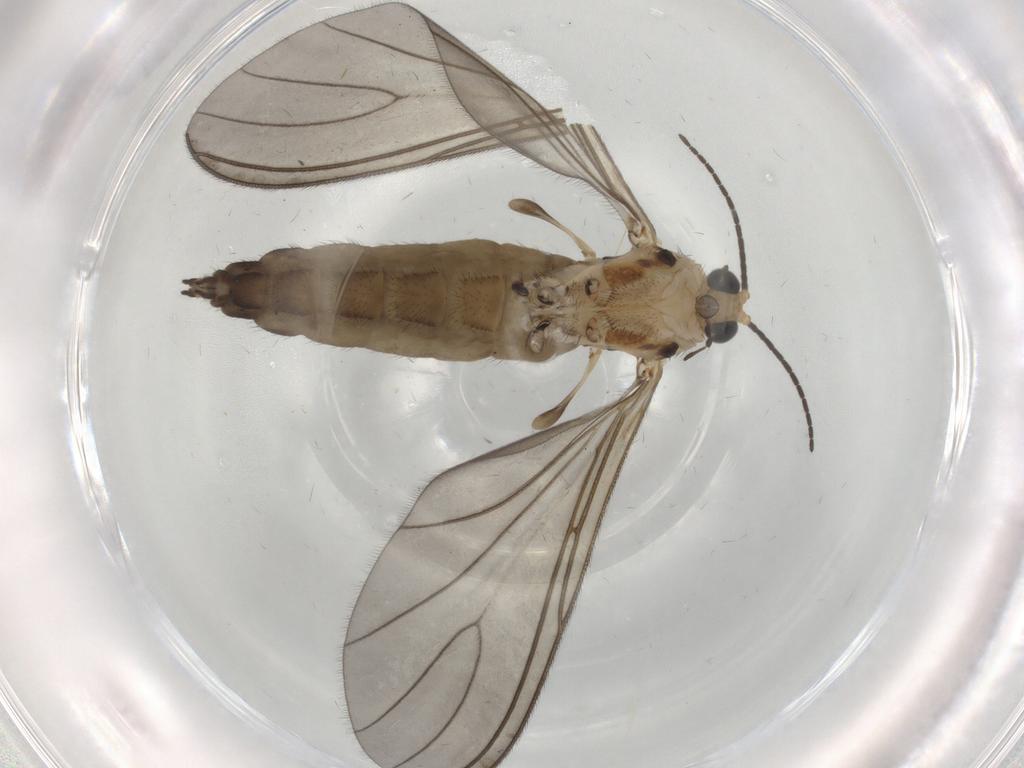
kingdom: Animalia
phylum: Arthropoda
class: Insecta
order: Diptera
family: Sciaridae
